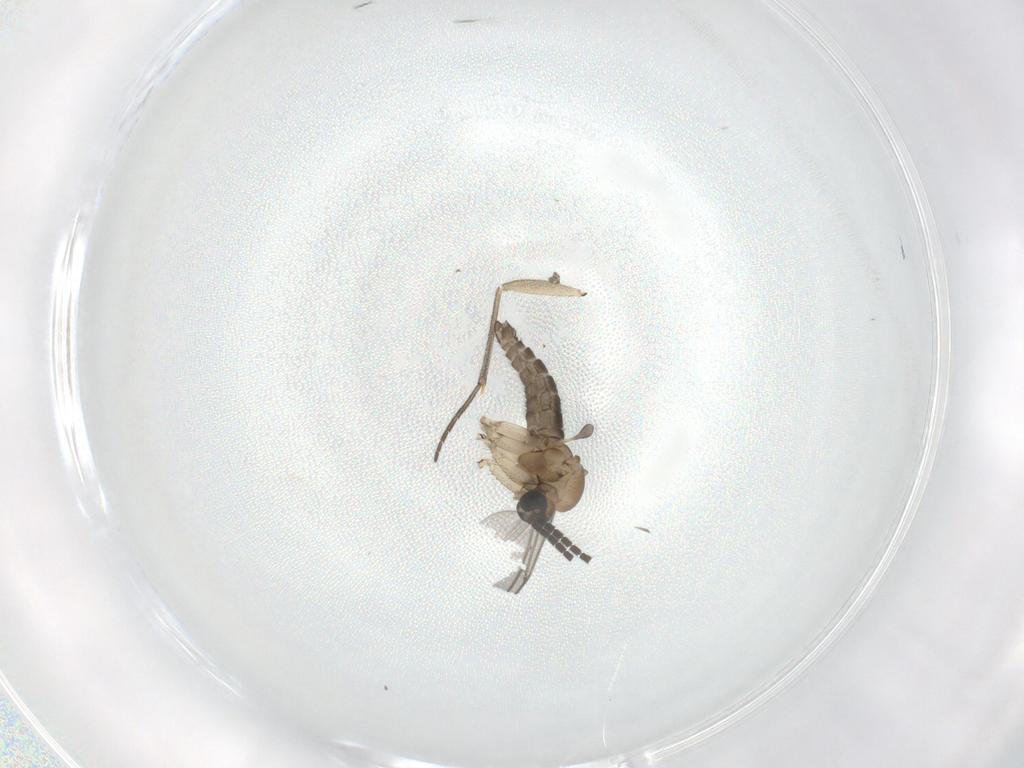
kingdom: Animalia
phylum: Arthropoda
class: Insecta
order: Diptera
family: Sciaridae
